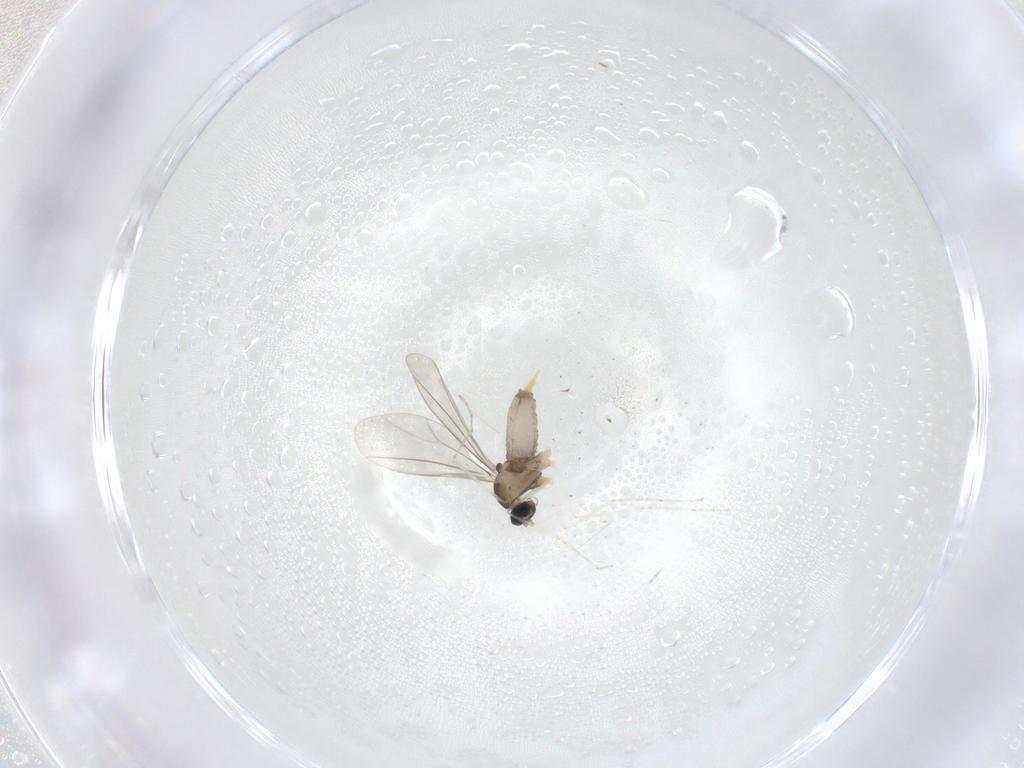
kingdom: Animalia
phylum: Arthropoda
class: Insecta
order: Diptera
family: Cecidomyiidae
